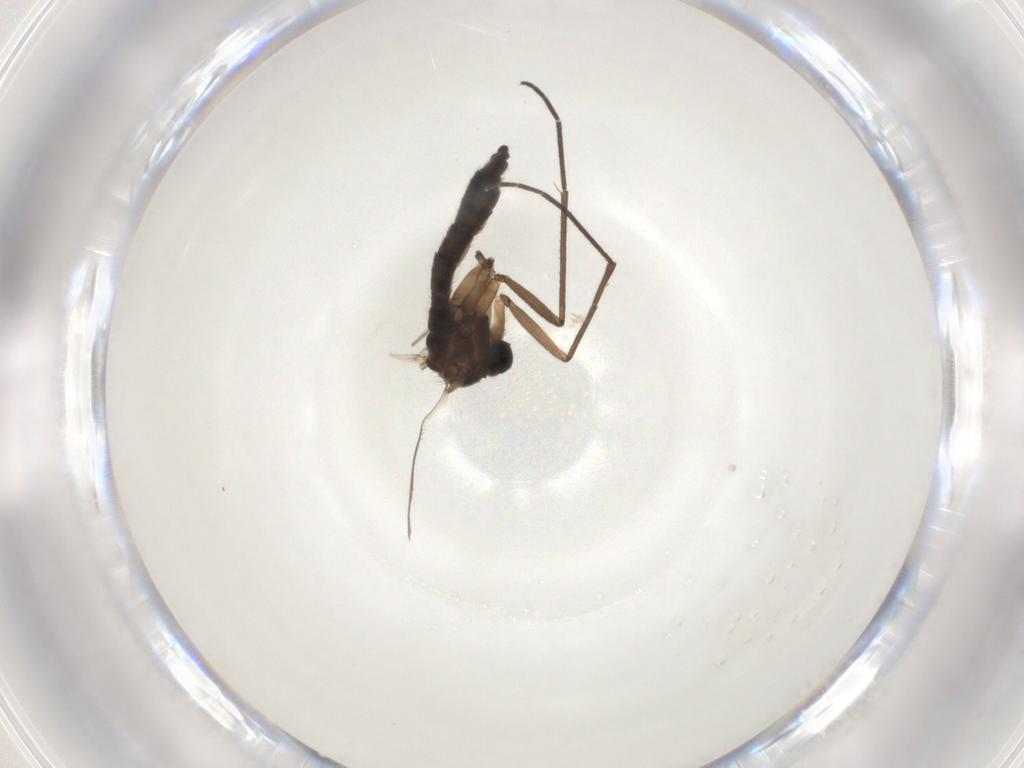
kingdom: Animalia
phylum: Arthropoda
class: Insecta
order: Diptera
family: Sciaridae
